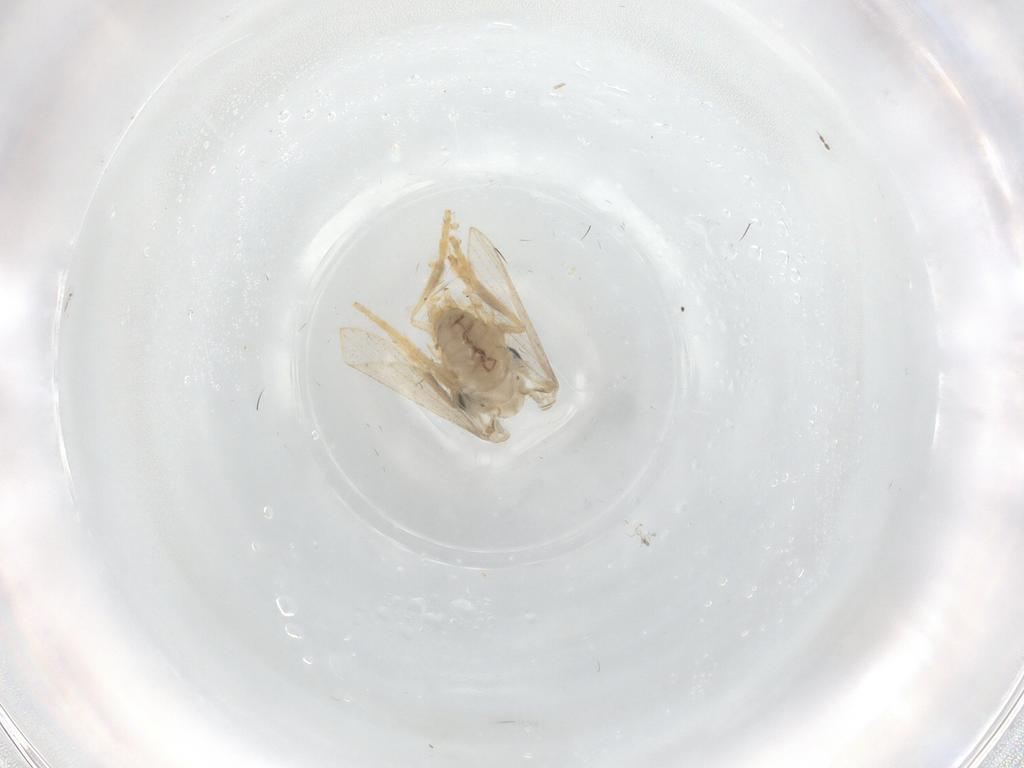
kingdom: Animalia
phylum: Arthropoda
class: Insecta
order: Diptera
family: Psychodidae
